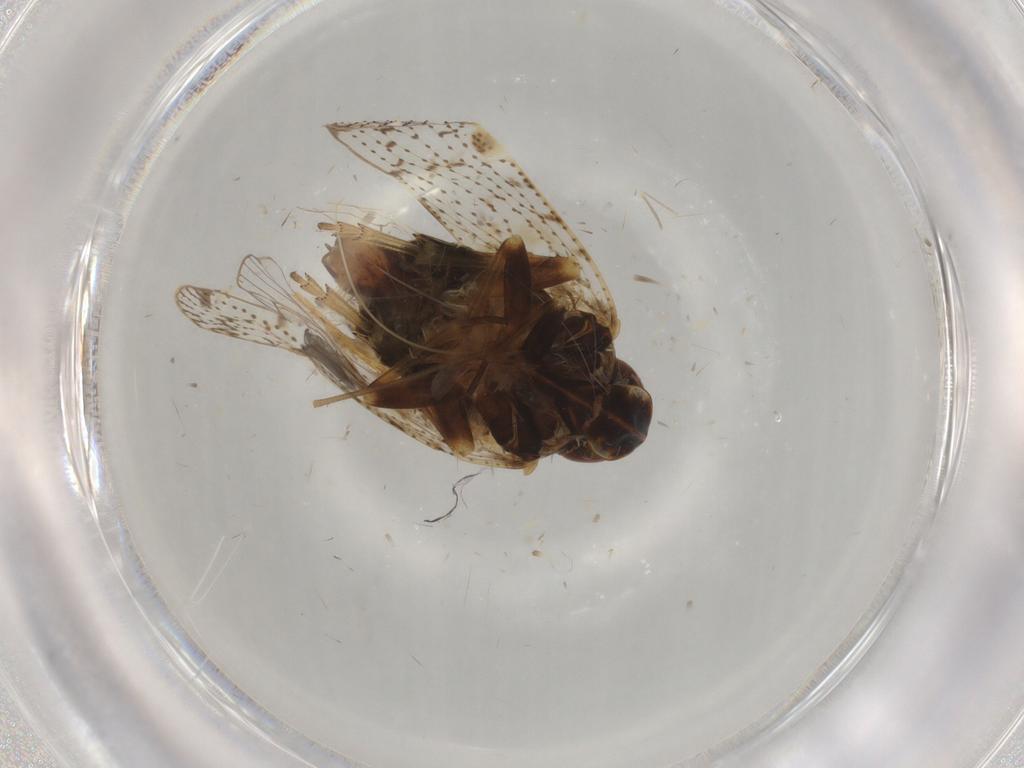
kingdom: Animalia
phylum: Arthropoda
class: Insecta
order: Hemiptera
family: Cixiidae
